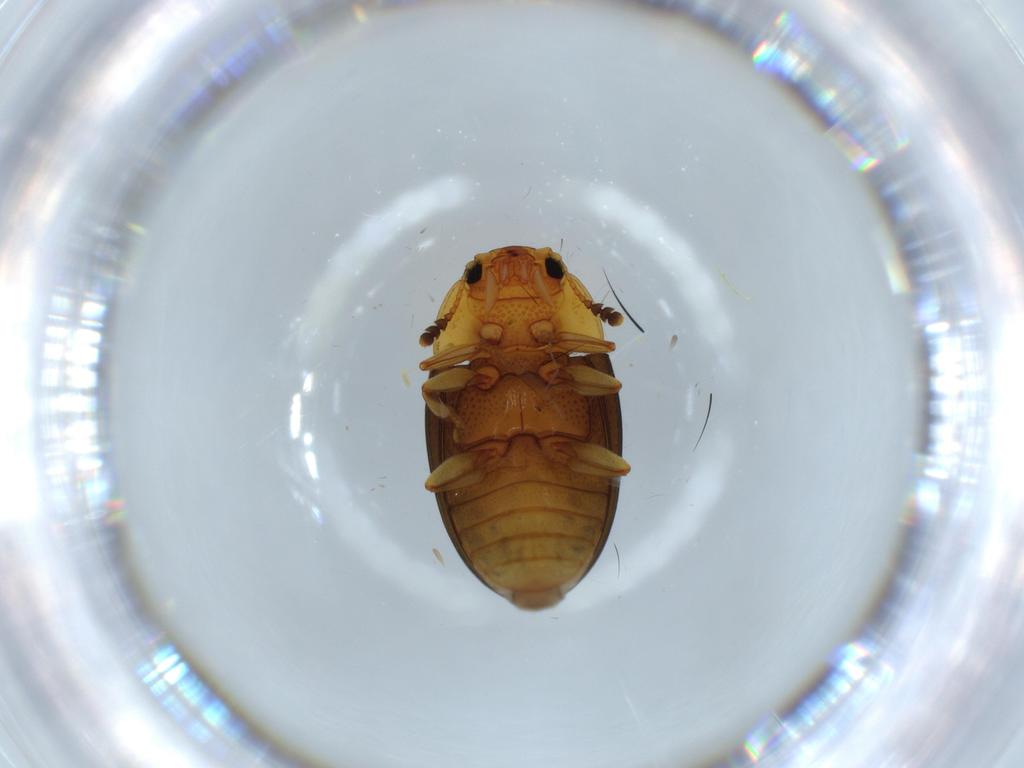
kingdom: Animalia
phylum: Arthropoda
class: Insecta
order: Coleoptera
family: Erotylidae
